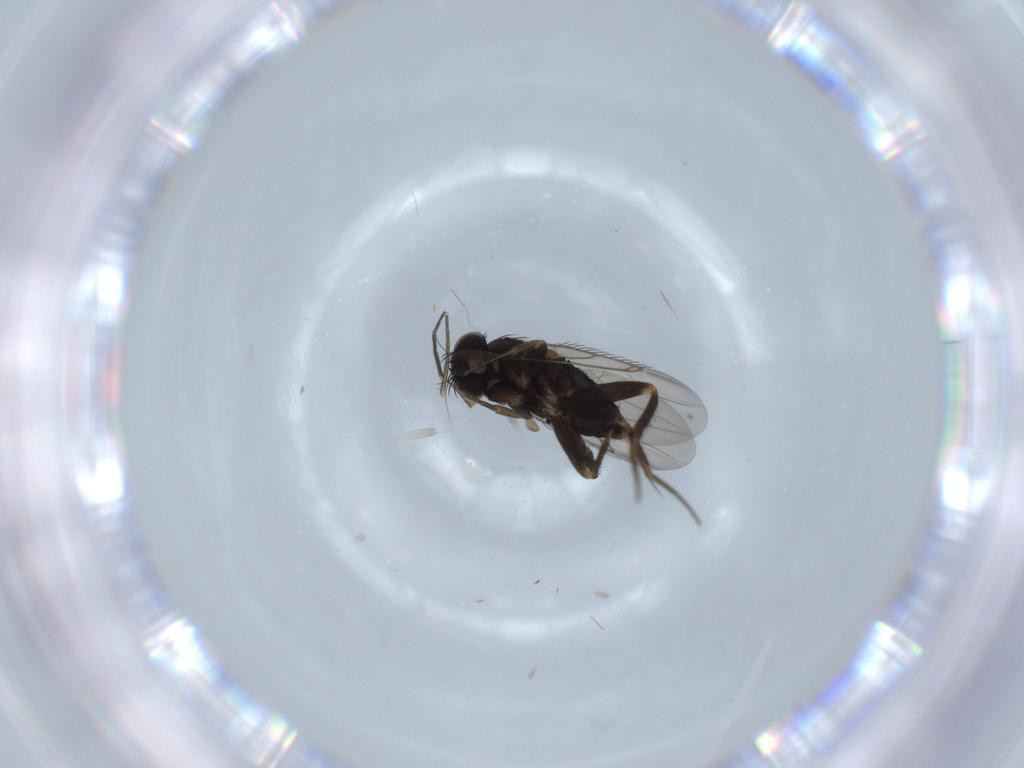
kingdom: Animalia
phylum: Arthropoda
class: Insecta
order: Diptera
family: Phoridae
